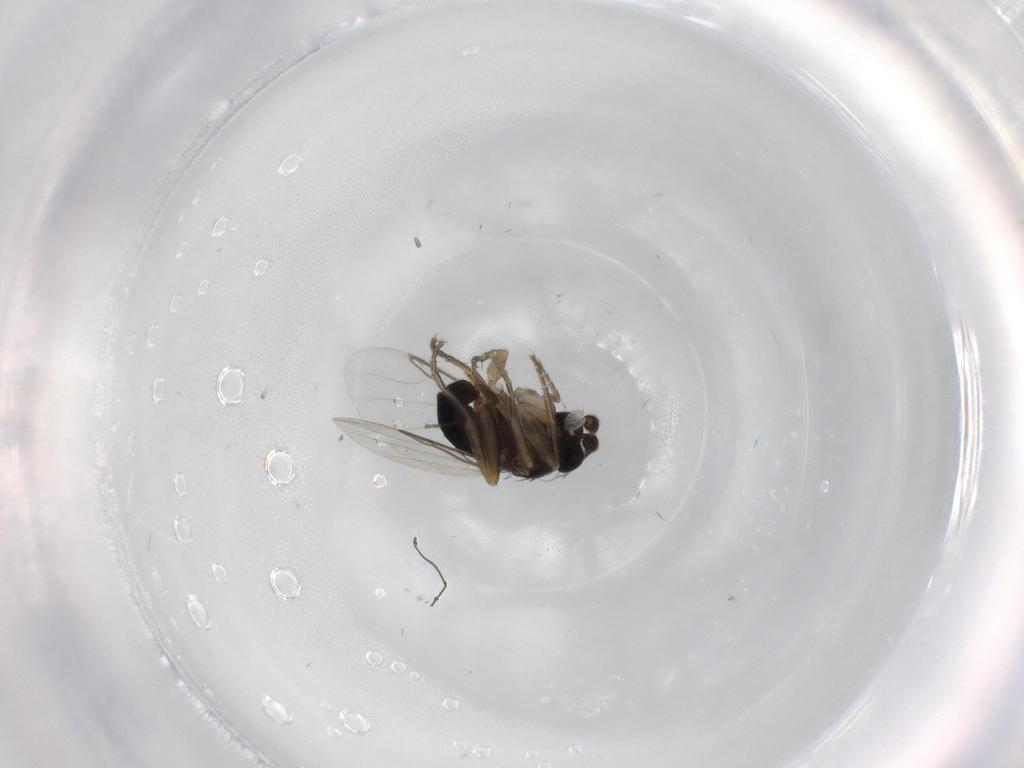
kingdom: Animalia
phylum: Arthropoda
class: Insecta
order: Diptera
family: Phoridae
